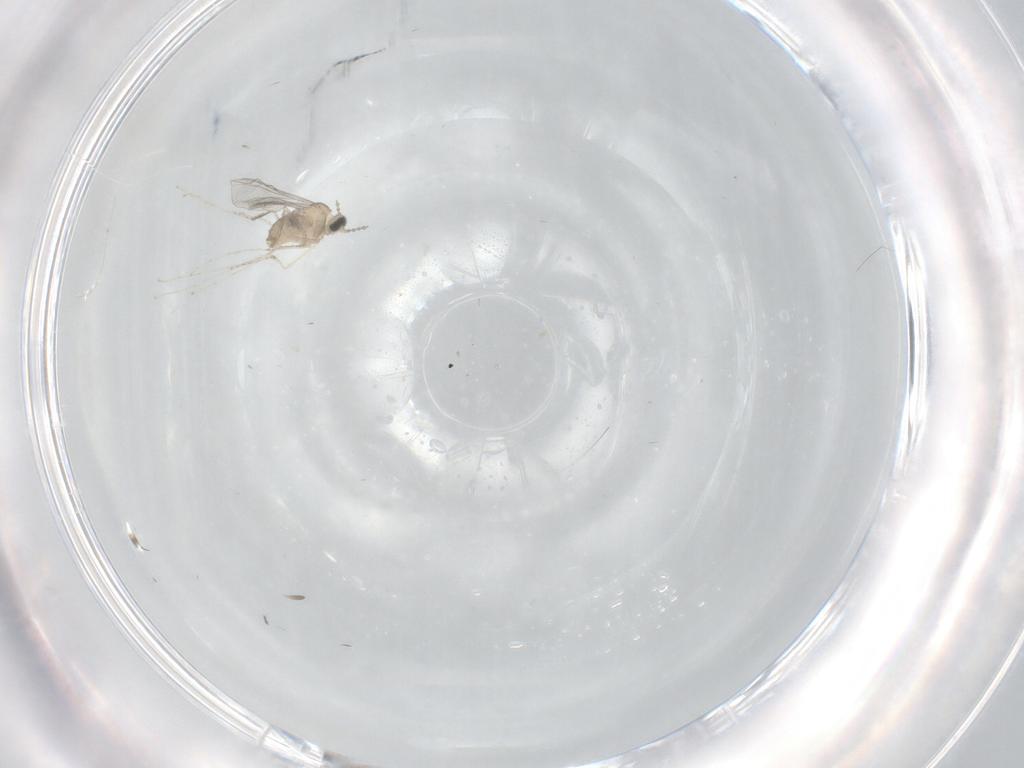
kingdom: Animalia
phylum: Arthropoda
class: Insecta
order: Diptera
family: Cecidomyiidae
